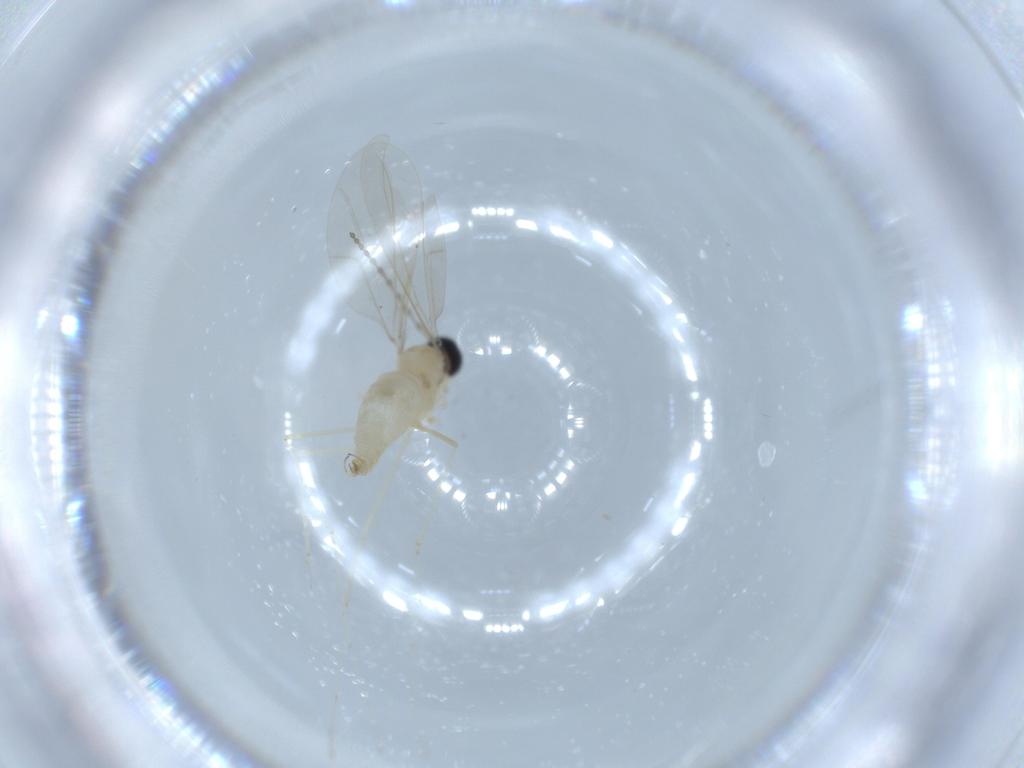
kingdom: Animalia
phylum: Arthropoda
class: Insecta
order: Diptera
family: Cecidomyiidae
